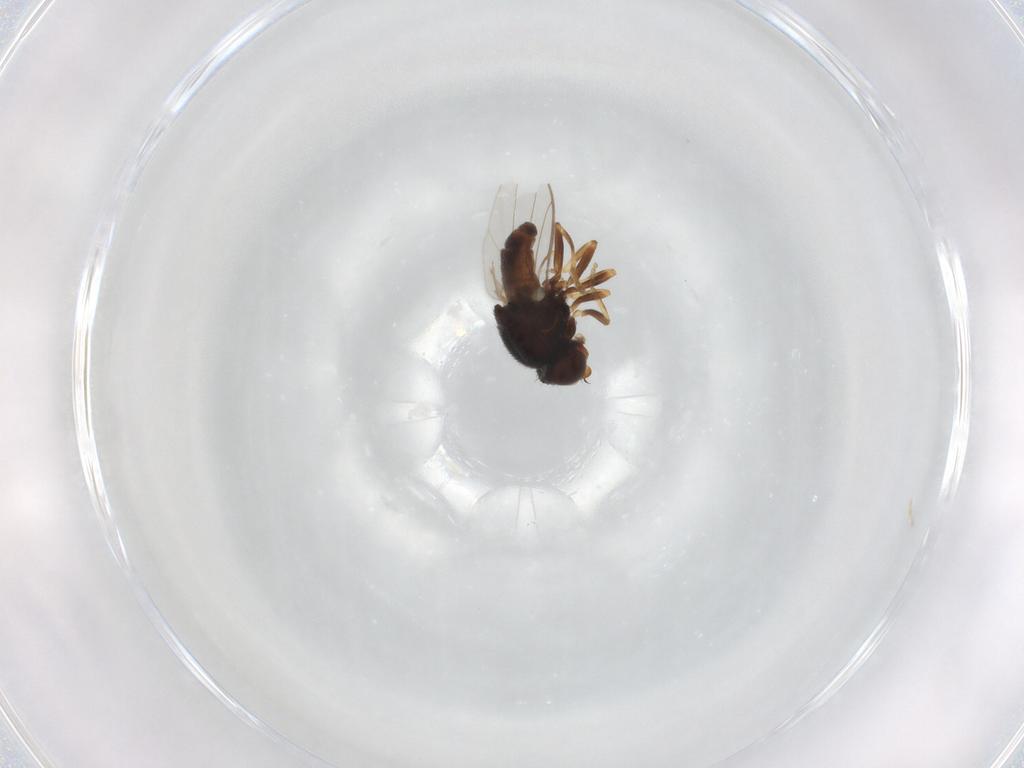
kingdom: Animalia
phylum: Arthropoda
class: Insecta
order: Diptera
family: Chloropidae
